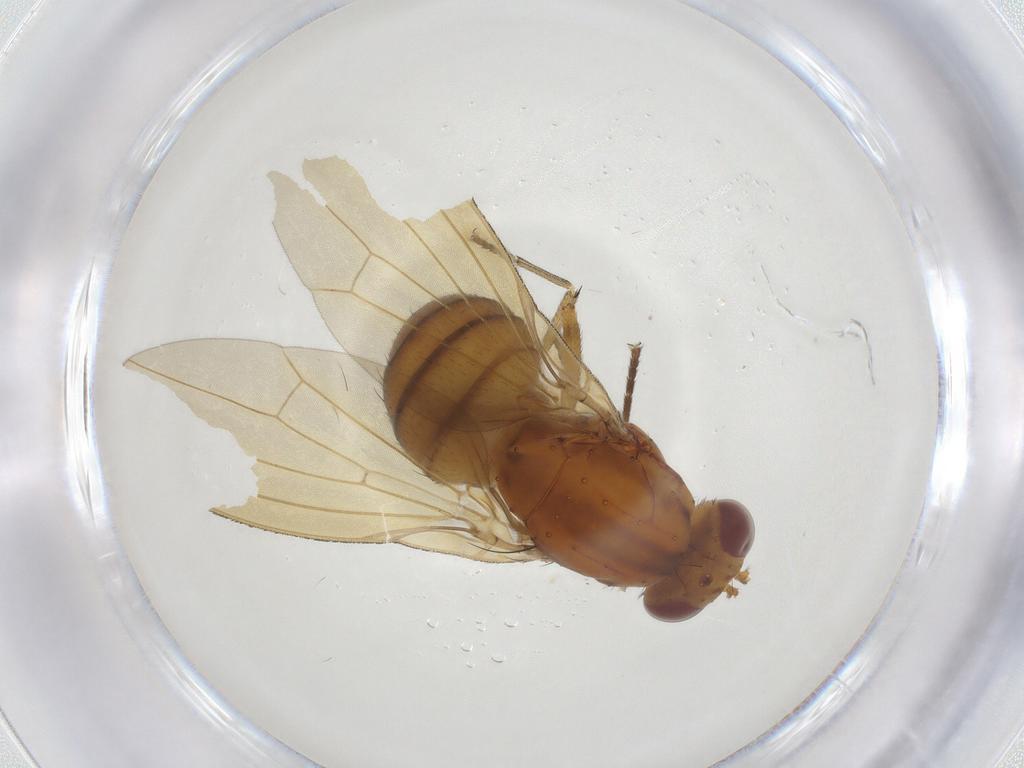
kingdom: Animalia
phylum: Arthropoda
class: Insecta
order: Diptera
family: Lauxaniidae
